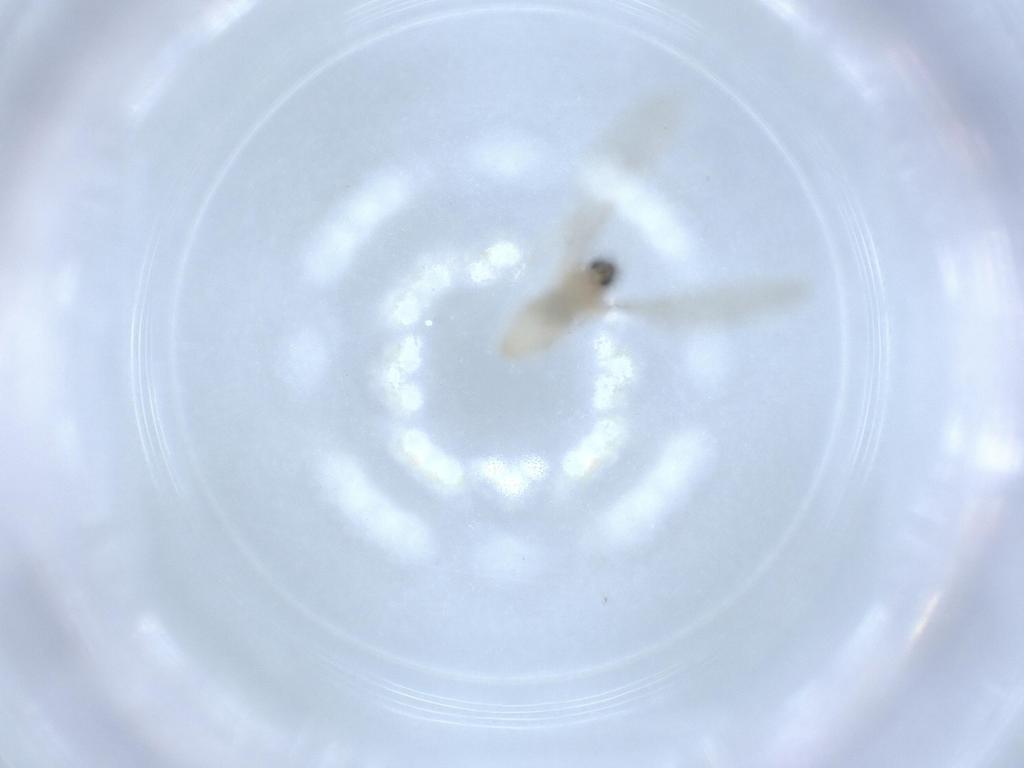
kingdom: Animalia
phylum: Arthropoda
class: Insecta
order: Diptera
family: Cecidomyiidae
